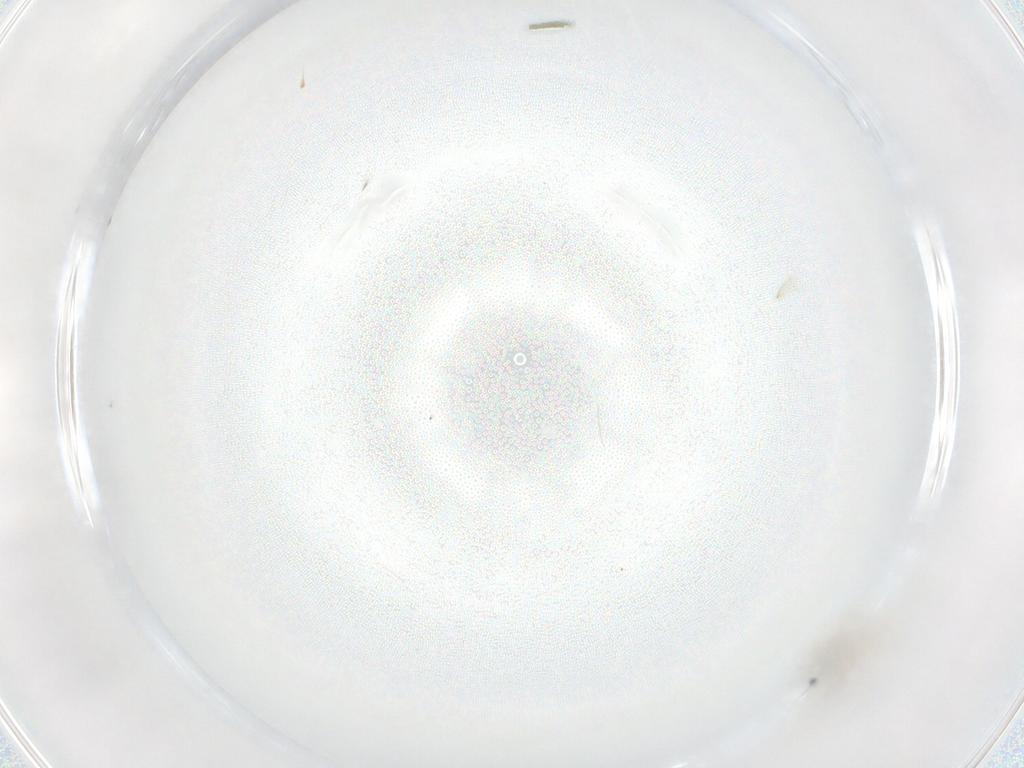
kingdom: Animalia
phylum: Arthropoda
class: Insecta
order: Diptera
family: Cecidomyiidae
